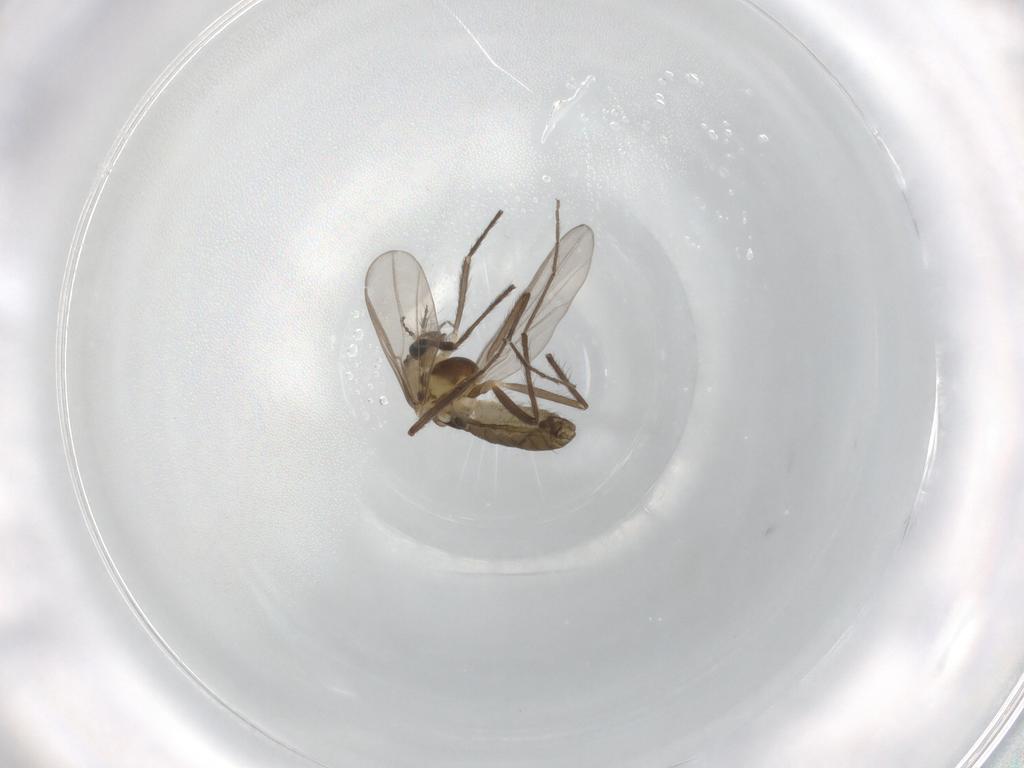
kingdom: Animalia
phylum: Arthropoda
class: Insecta
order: Diptera
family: Chironomidae
